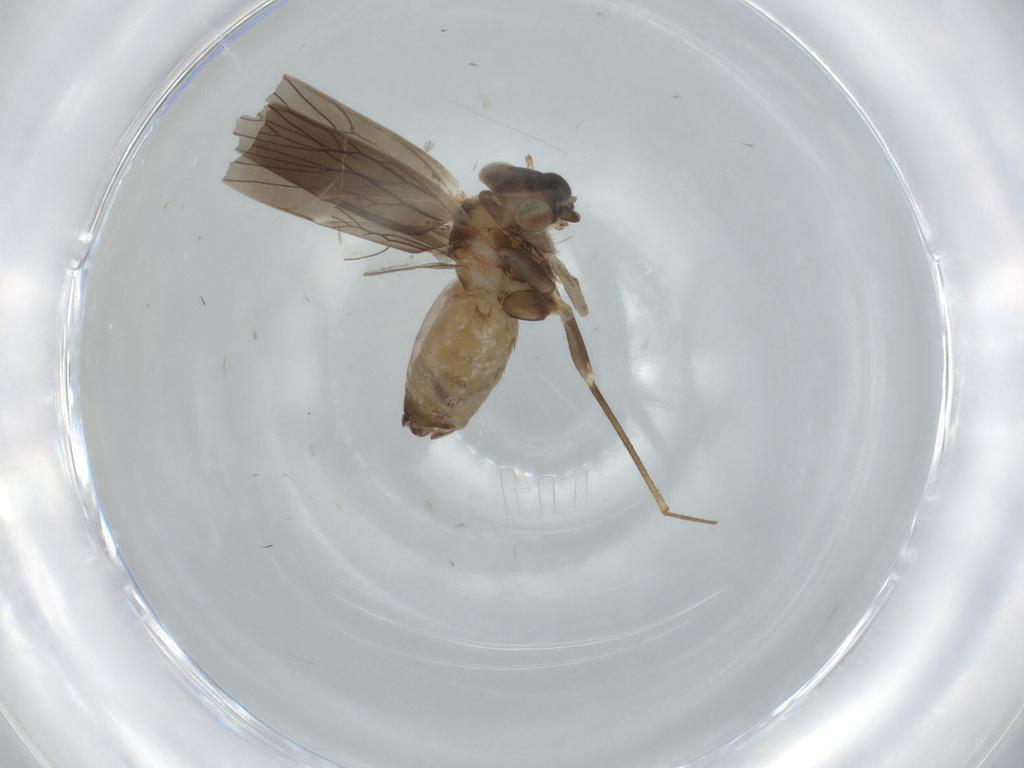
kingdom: Animalia
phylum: Arthropoda
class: Insecta
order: Psocodea
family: Lepidopsocidae
